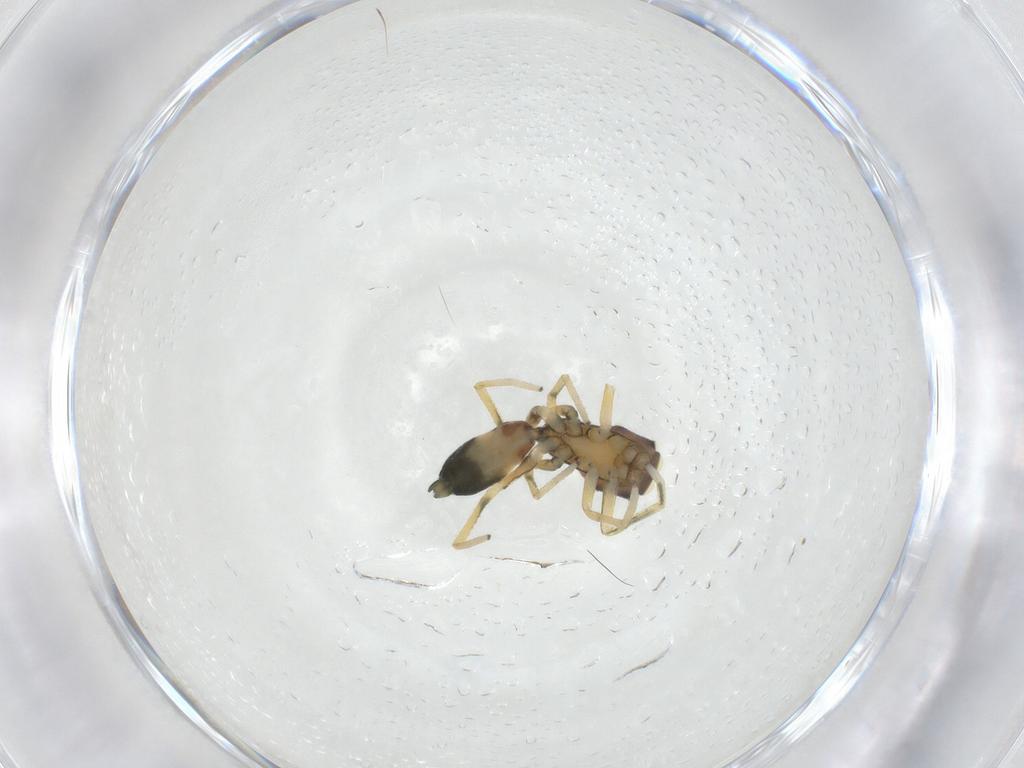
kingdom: Animalia
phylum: Arthropoda
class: Arachnida
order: Araneae
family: Salticidae
